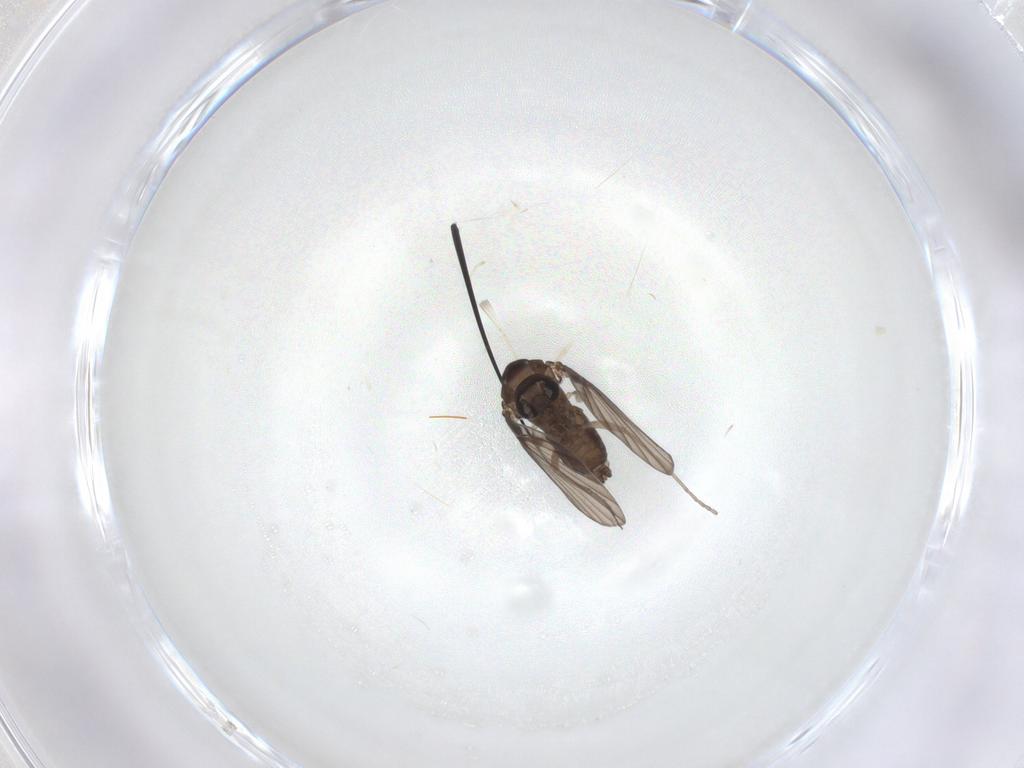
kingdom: Animalia
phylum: Arthropoda
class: Insecta
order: Diptera
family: Psychodidae
